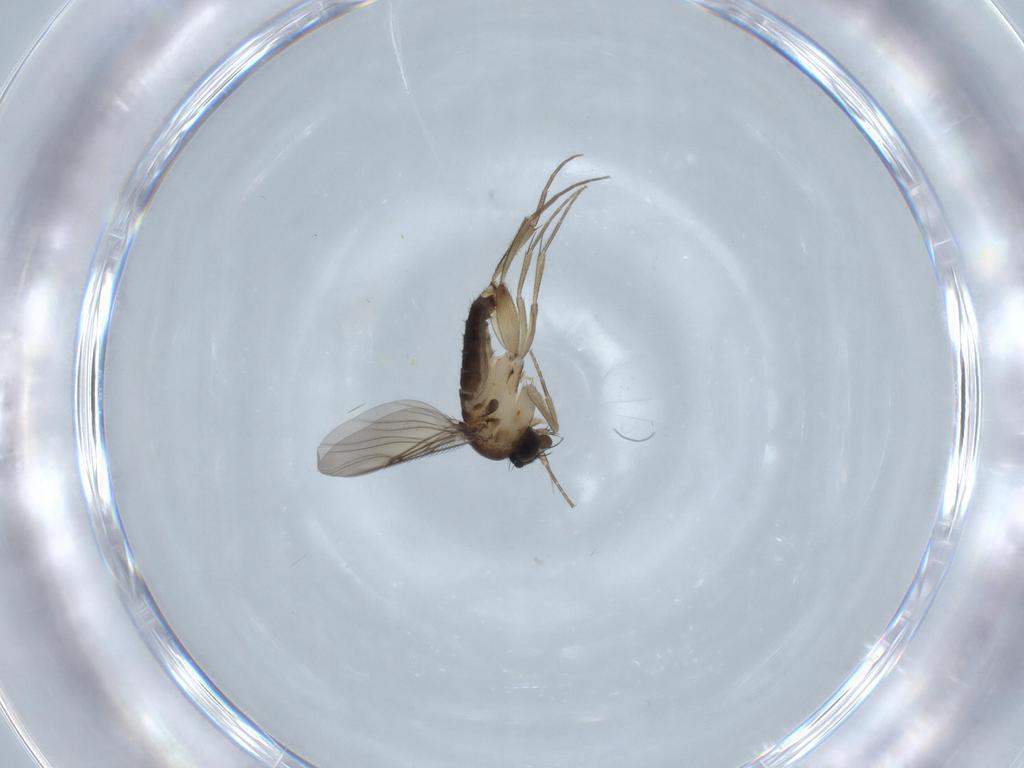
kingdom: Animalia
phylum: Arthropoda
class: Insecta
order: Diptera
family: Phoridae
